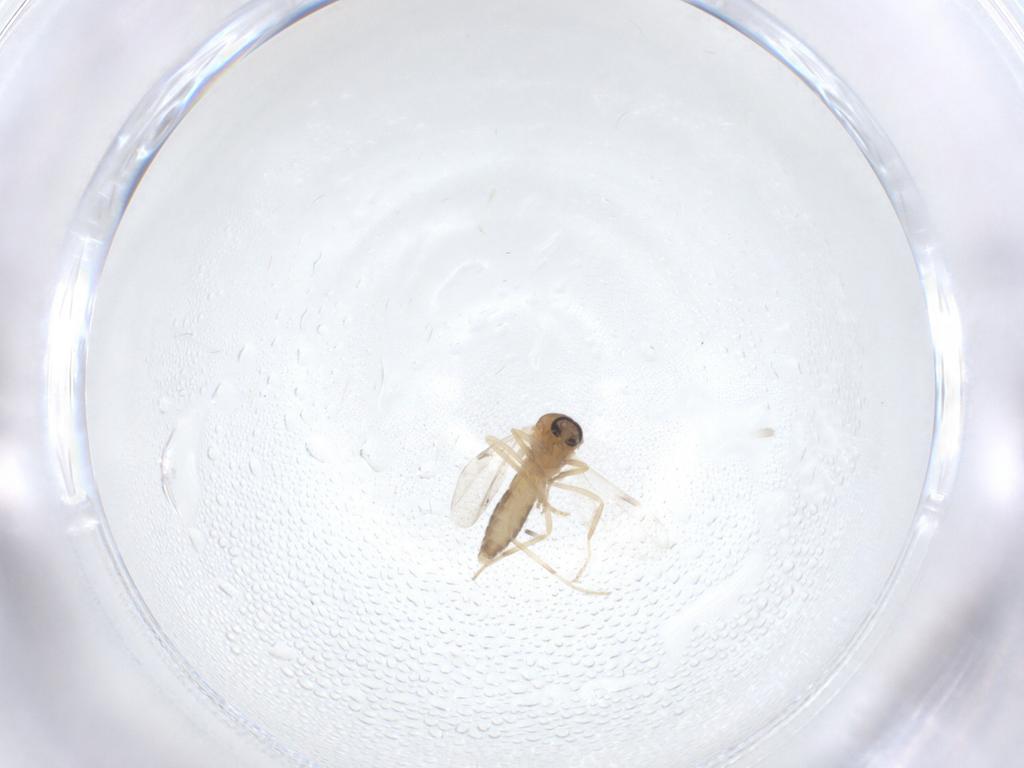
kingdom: Animalia
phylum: Arthropoda
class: Insecta
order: Diptera
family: Ceratopogonidae
